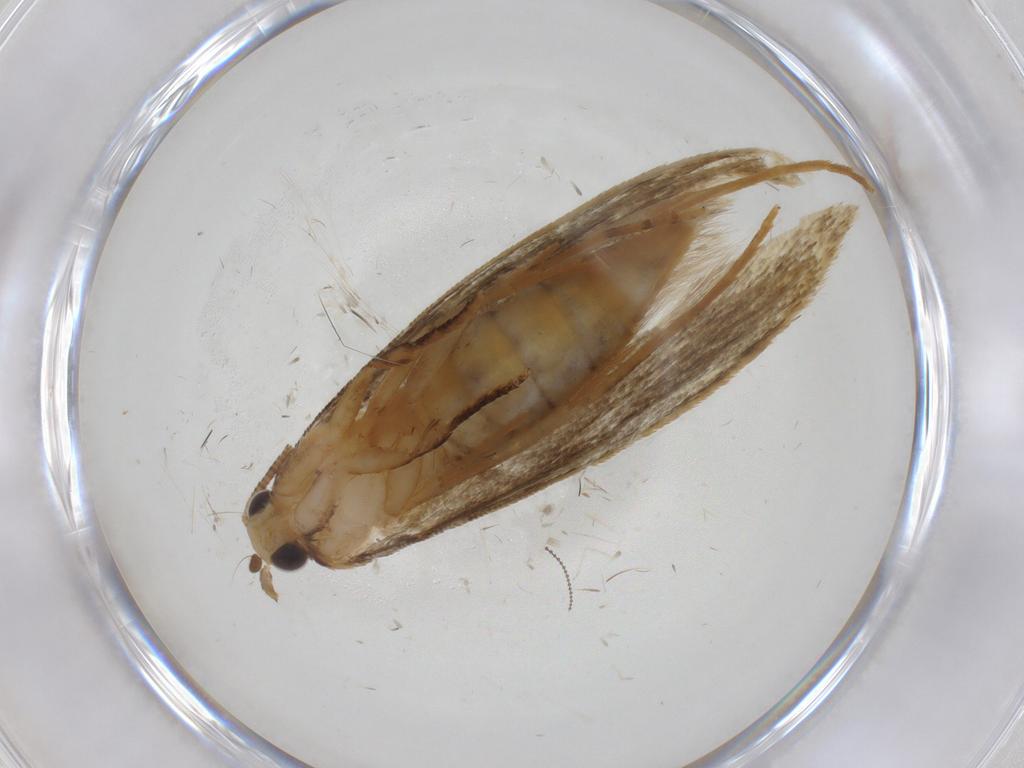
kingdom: Animalia
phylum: Arthropoda
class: Insecta
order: Lepidoptera
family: Tineidae
